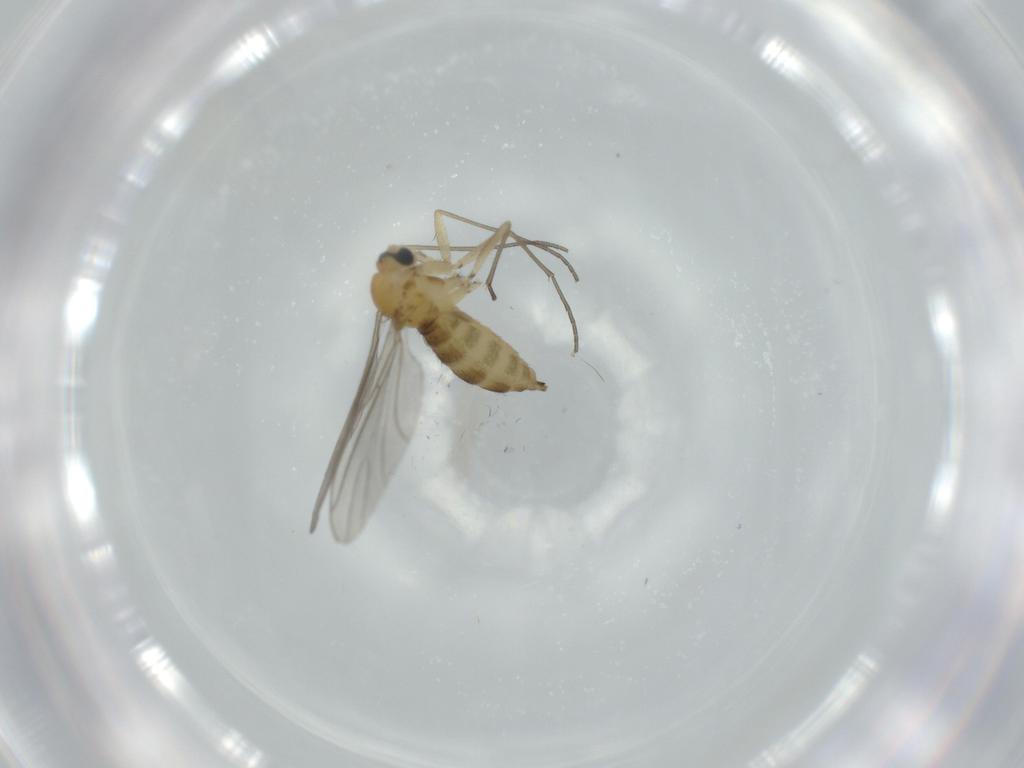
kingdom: Animalia
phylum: Arthropoda
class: Insecta
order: Diptera
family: Sciaridae
